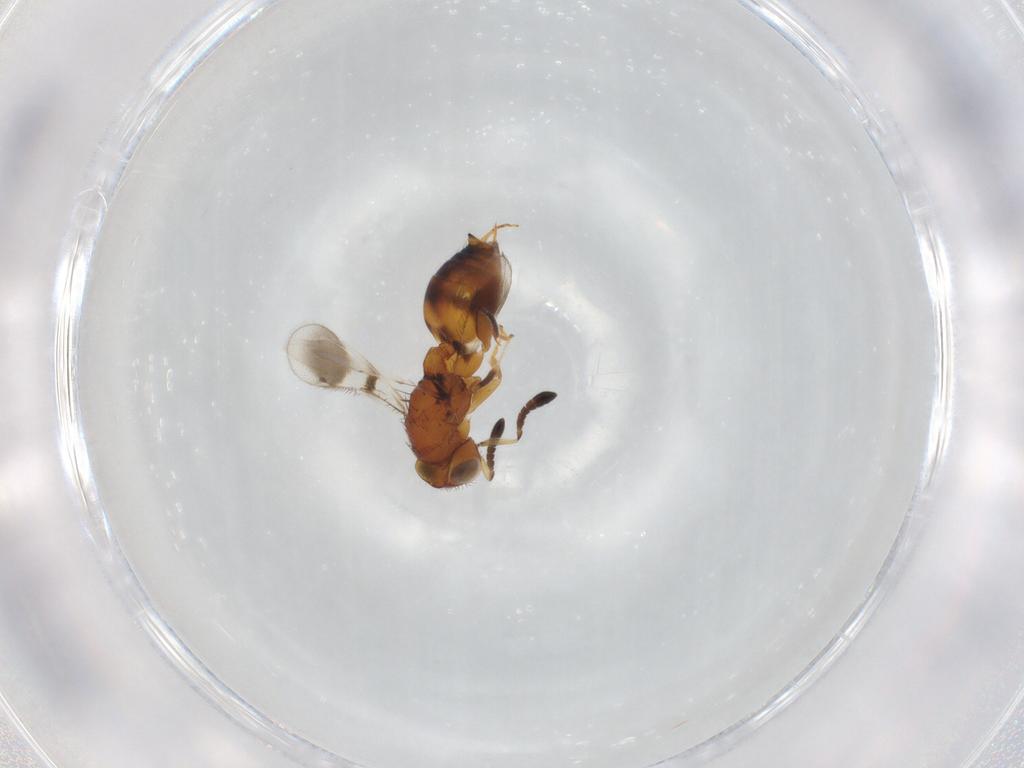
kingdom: Animalia
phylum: Arthropoda
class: Insecta
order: Hymenoptera
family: Moranilidae
